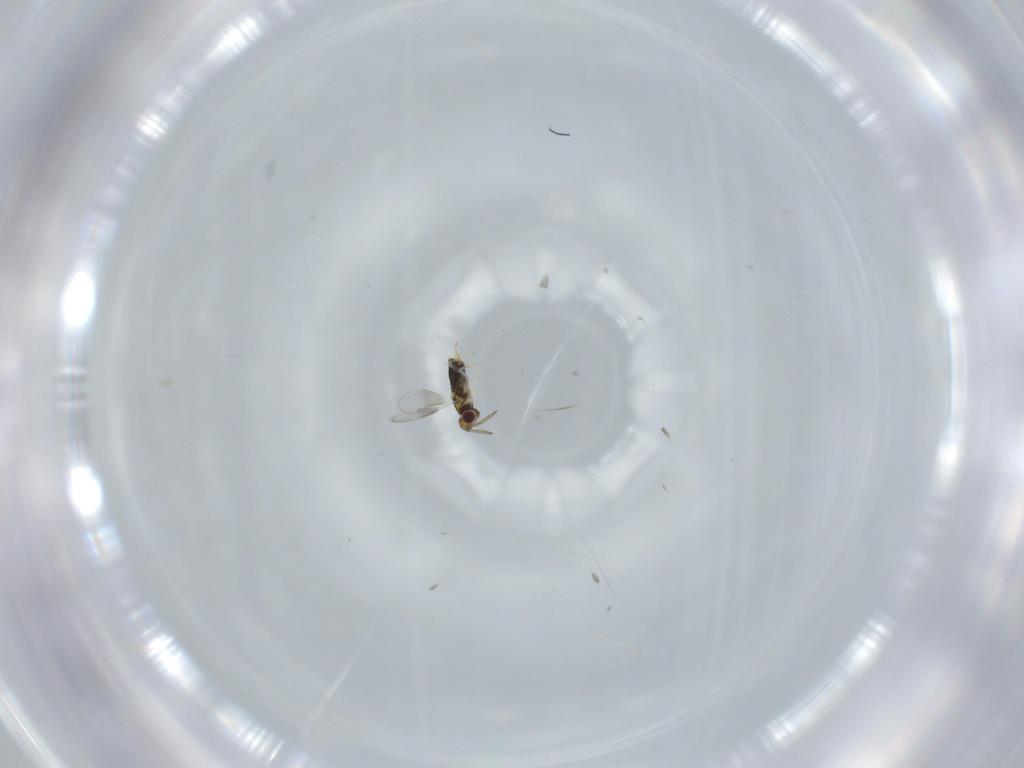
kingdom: Animalia
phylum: Arthropoda
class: Insecta
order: Hymenoptera
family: Aphelinidae
